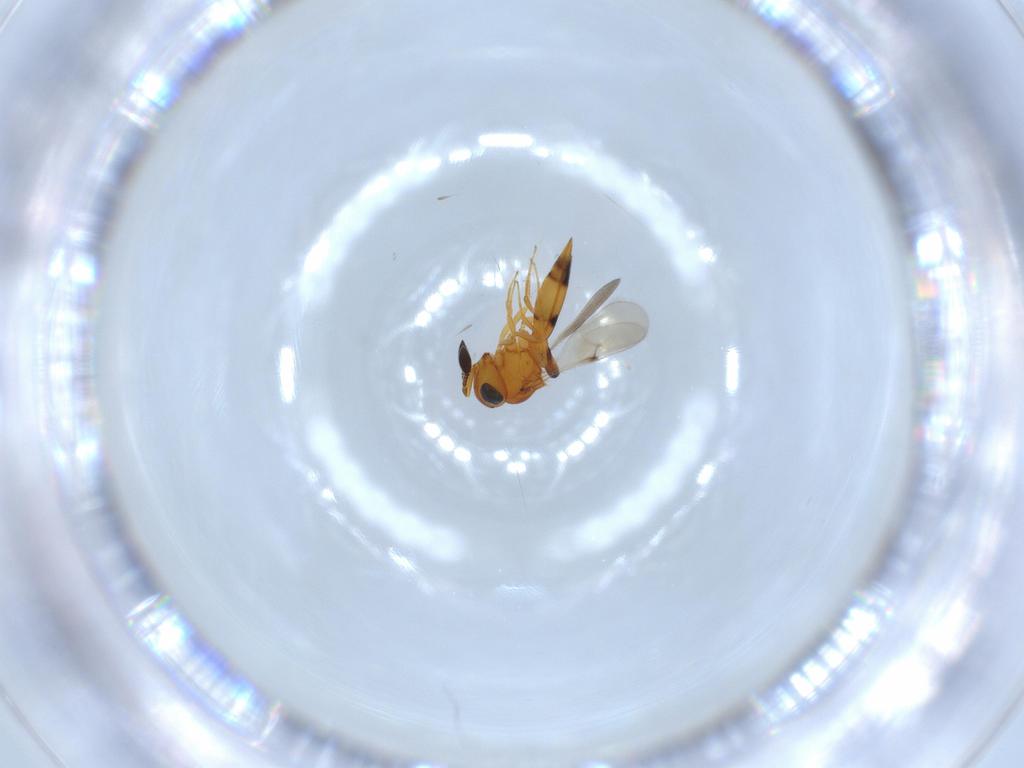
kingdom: Animalia
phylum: Arthropoda
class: Insecta
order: Hymenoptera
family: Scelionidae
